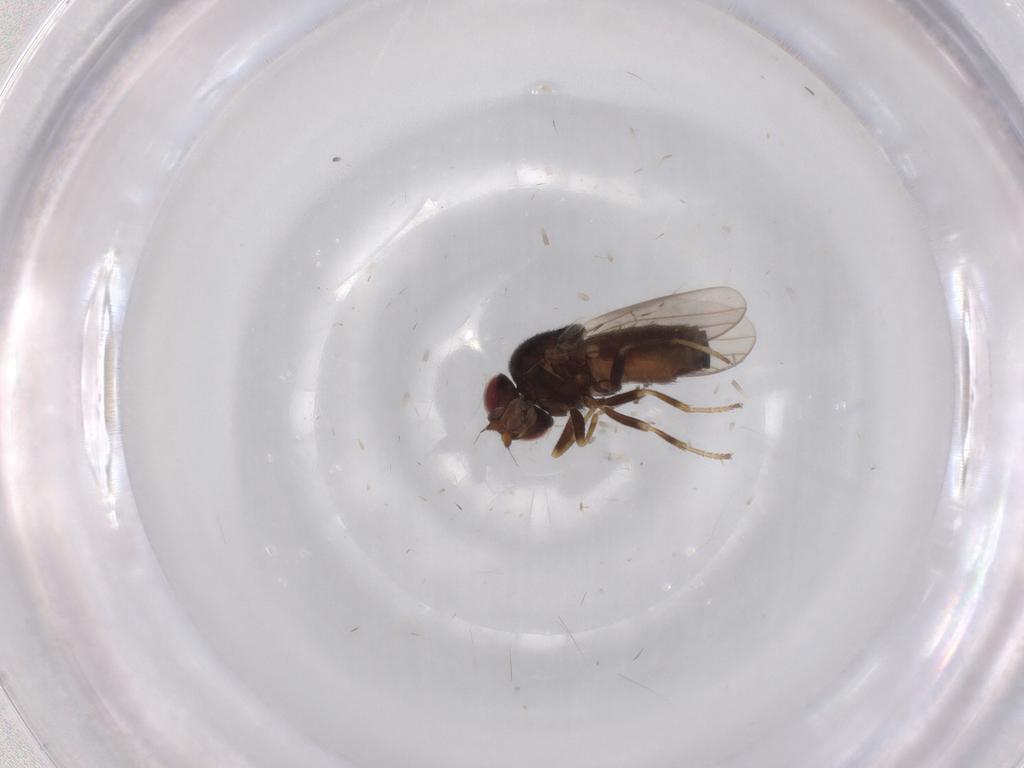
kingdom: Animalia
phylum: Arthropoda
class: Insecta
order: Diptera
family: Chloropidae
